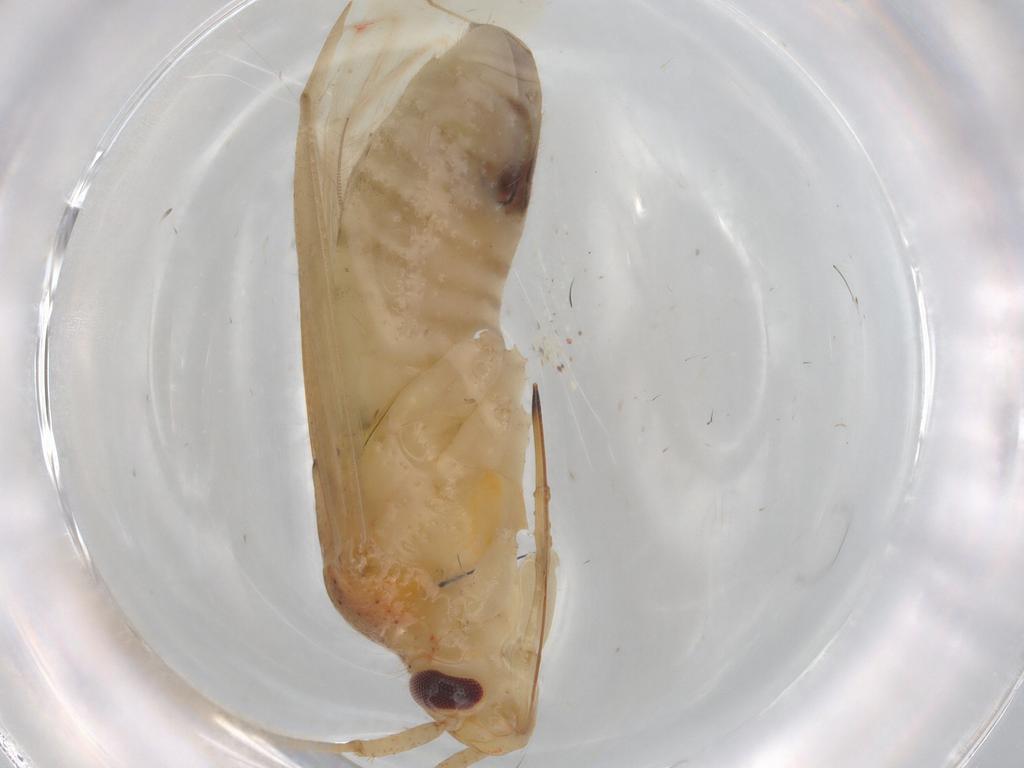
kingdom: Animalia
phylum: Arthropoda
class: Insecta
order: Hemiptera
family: Miridae
